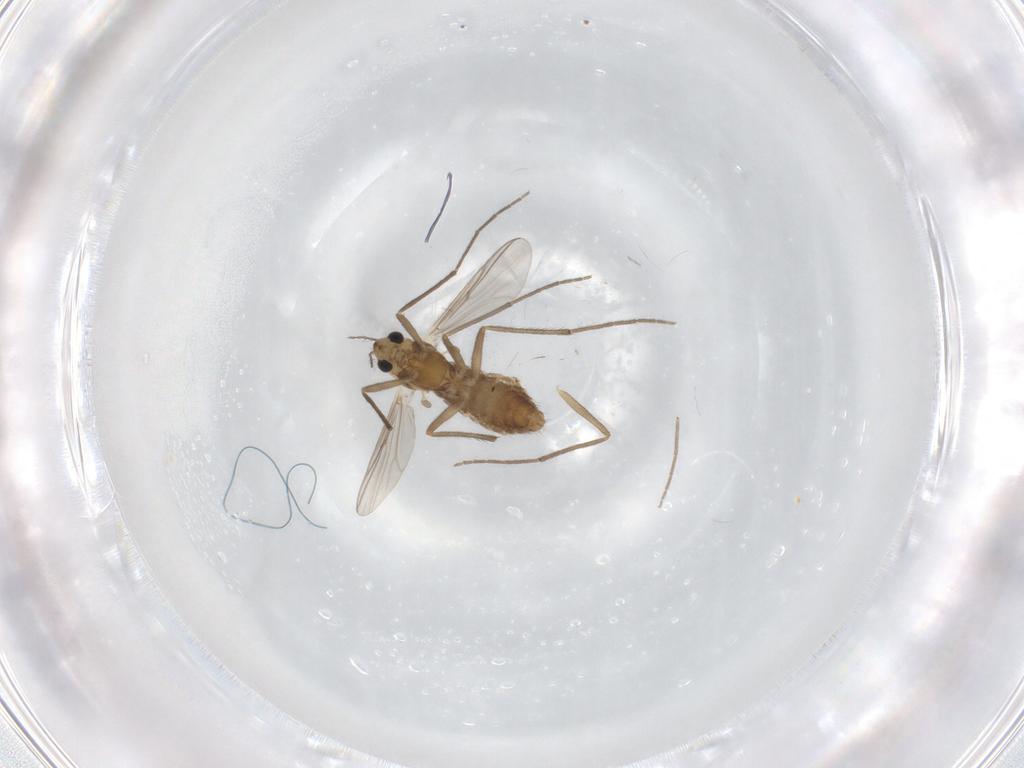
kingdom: Animalia
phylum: Arthropoda
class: Insecta
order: Diptera
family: Chironomidae
